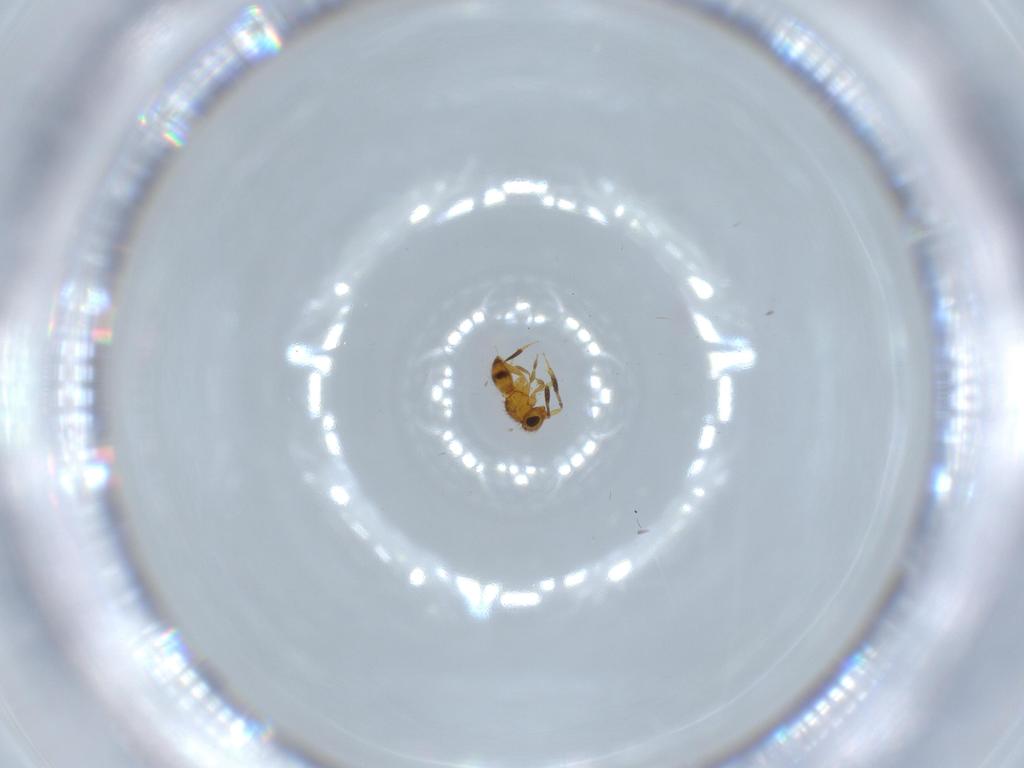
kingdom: Animalia
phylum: Arthropoda
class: Insecta
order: Hymenoptera
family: Scelionidae
